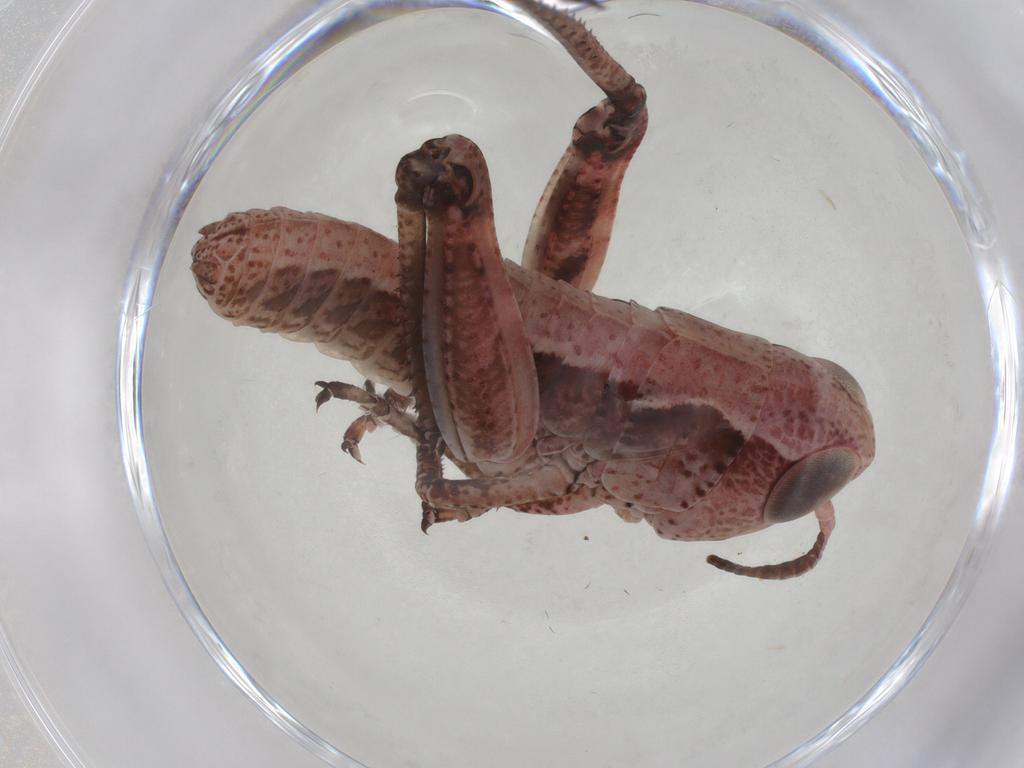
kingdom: Animalia
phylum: Arthropoda
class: Insecta
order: Orthoptera
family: Acrididae
